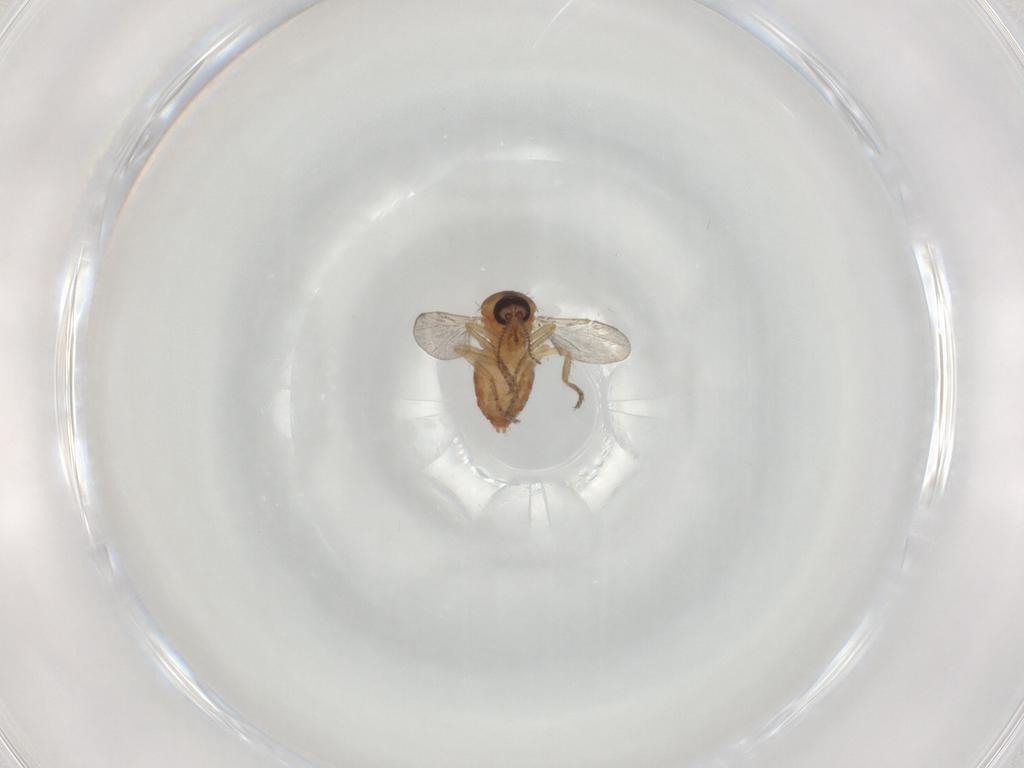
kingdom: Animalia
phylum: Arthropoda
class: Insecta
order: Diptera
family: Ceratopogonidae
